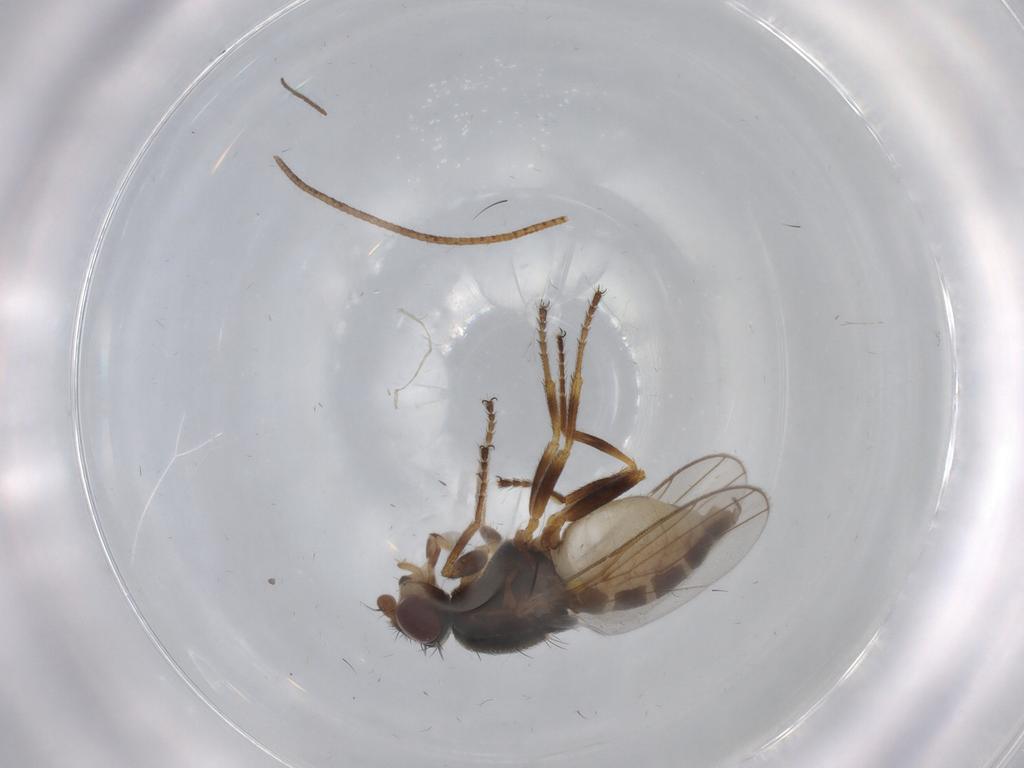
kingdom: Animalia
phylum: Arthropoda
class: Insecta
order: Diptera
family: Chloropidae
